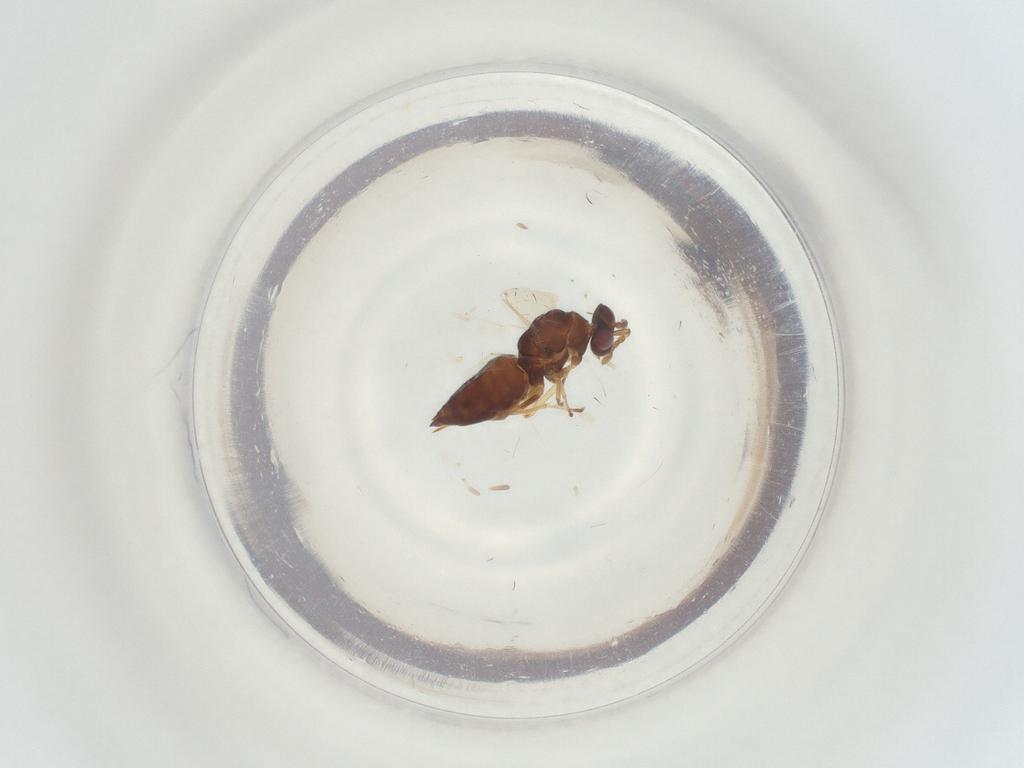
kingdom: Animalia
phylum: Arthropoda
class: Insecta
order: Hymenoptera
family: Eulophidae
